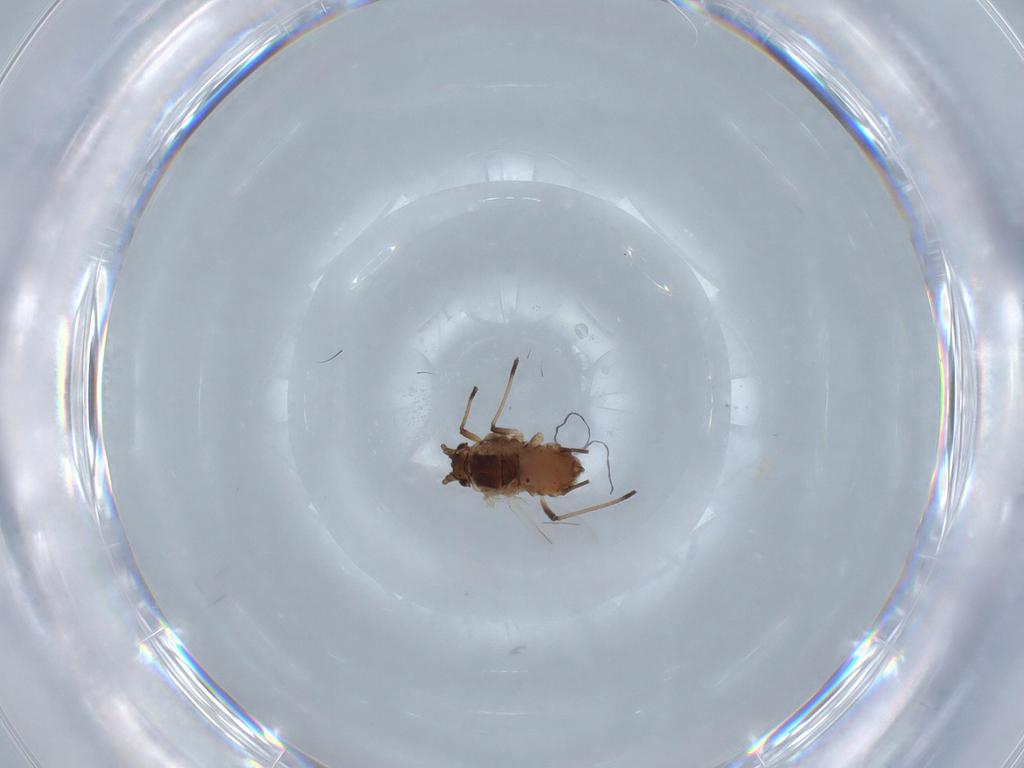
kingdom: Animalia
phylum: Arthropoda
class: Insecta
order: Hemiptera
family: Aphididae
